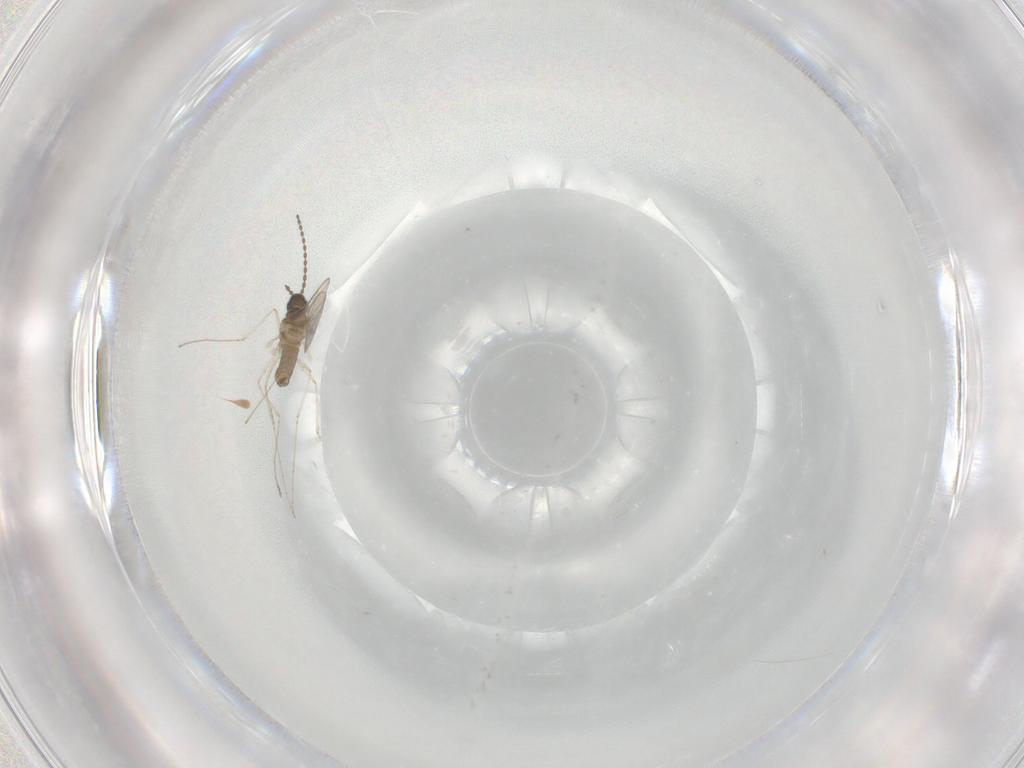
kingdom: Animalia
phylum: Arthropoda
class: Insecta
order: Diptera
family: Cecidomyiidae
